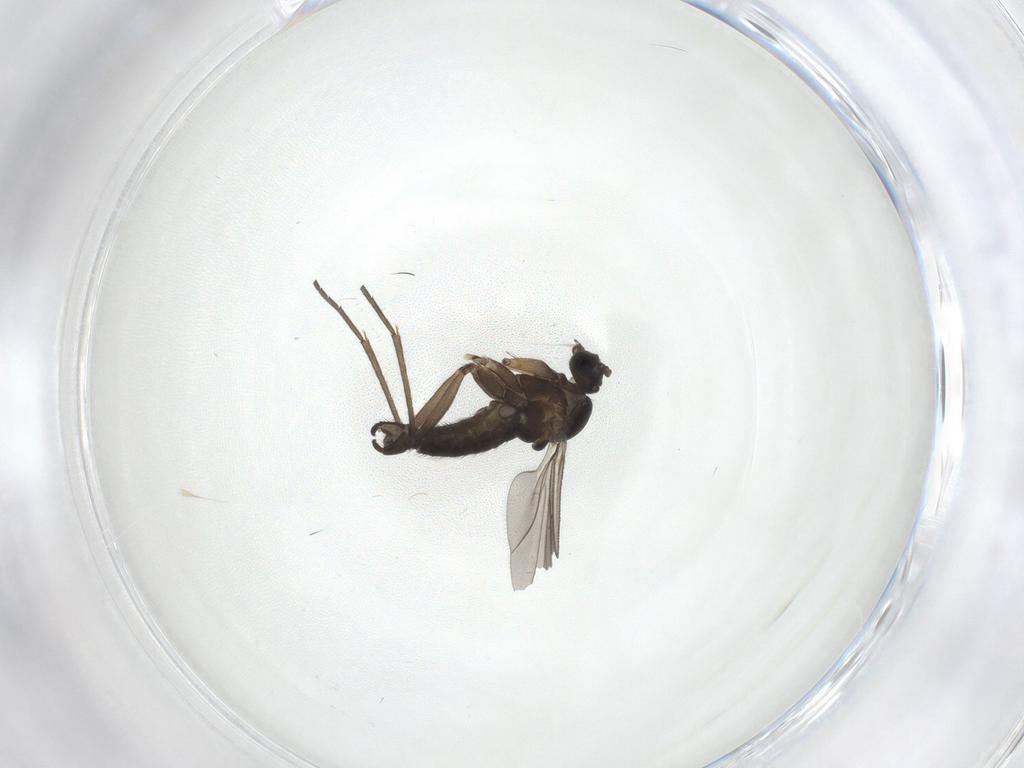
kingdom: Animalia
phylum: Arthropoda
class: Insecta
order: Diptera
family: Sciaridae
